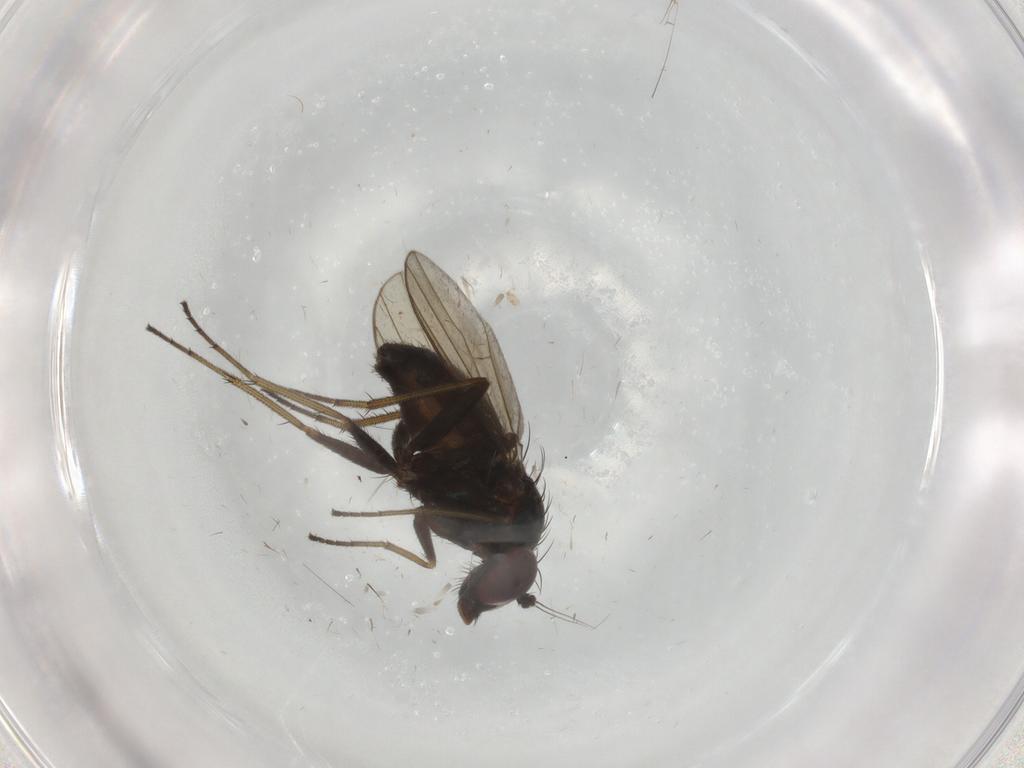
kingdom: Animalia
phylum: Arthropoda
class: Insecta
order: Diptera
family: Dolichopodidae
